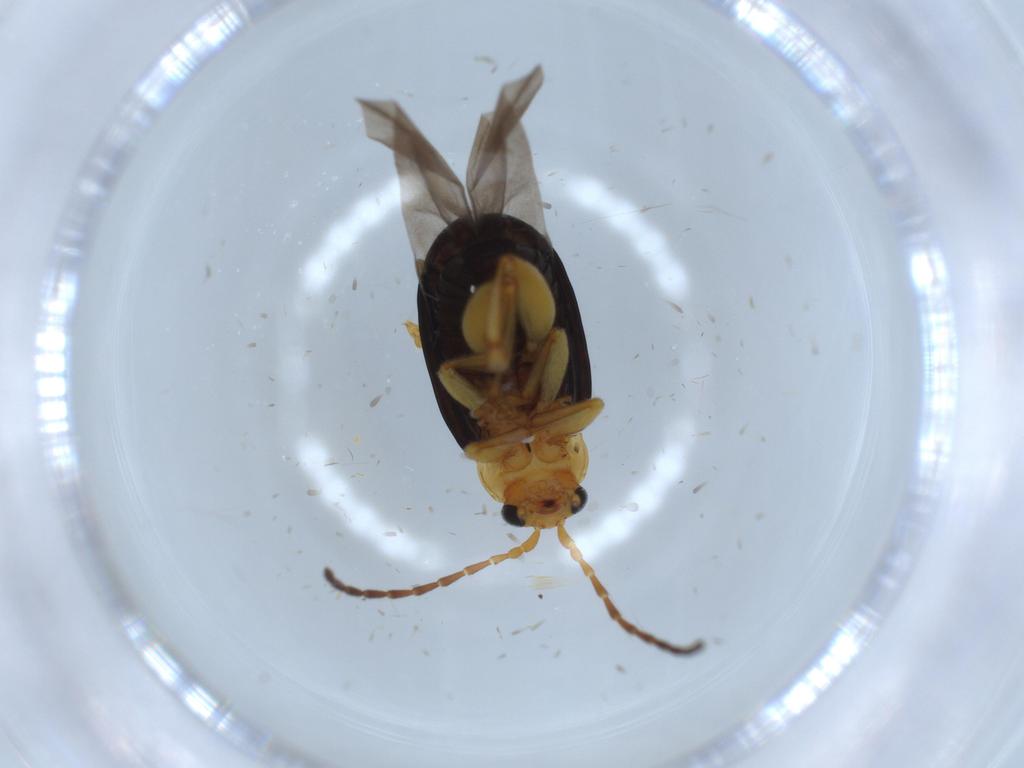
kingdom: Animalia
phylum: Arthropoda
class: Insecta
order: Coleoptera
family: Chrysomelidae
